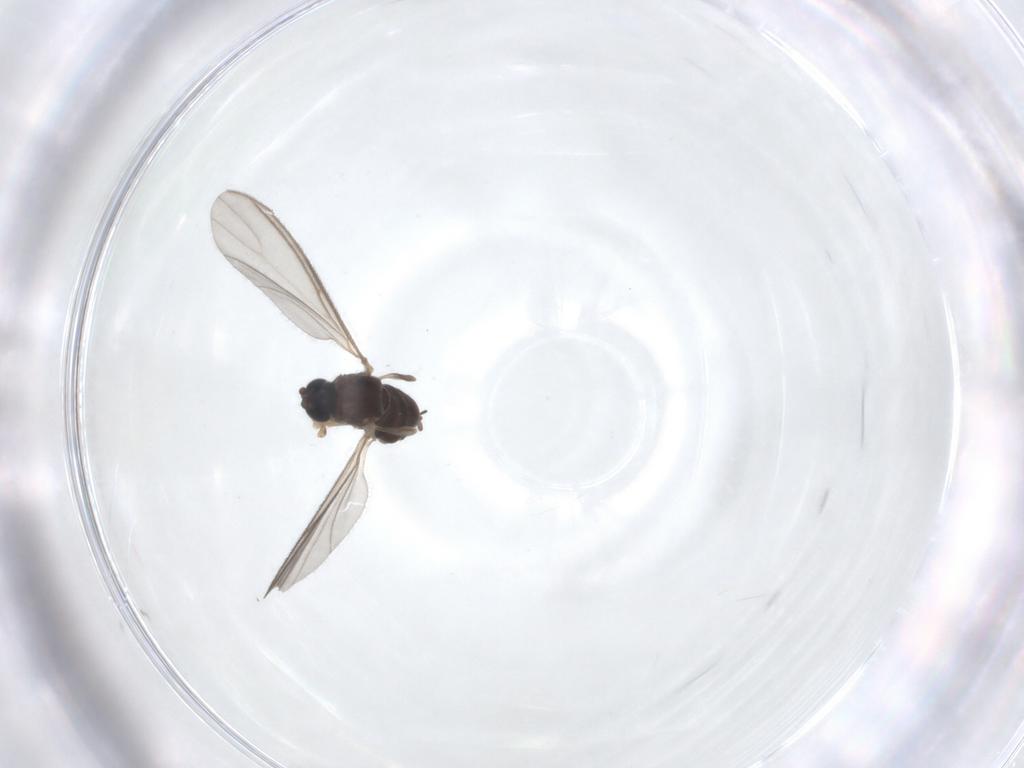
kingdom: Animalia
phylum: Arthropoda
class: Insecta
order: Diptera
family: Sciaridae
